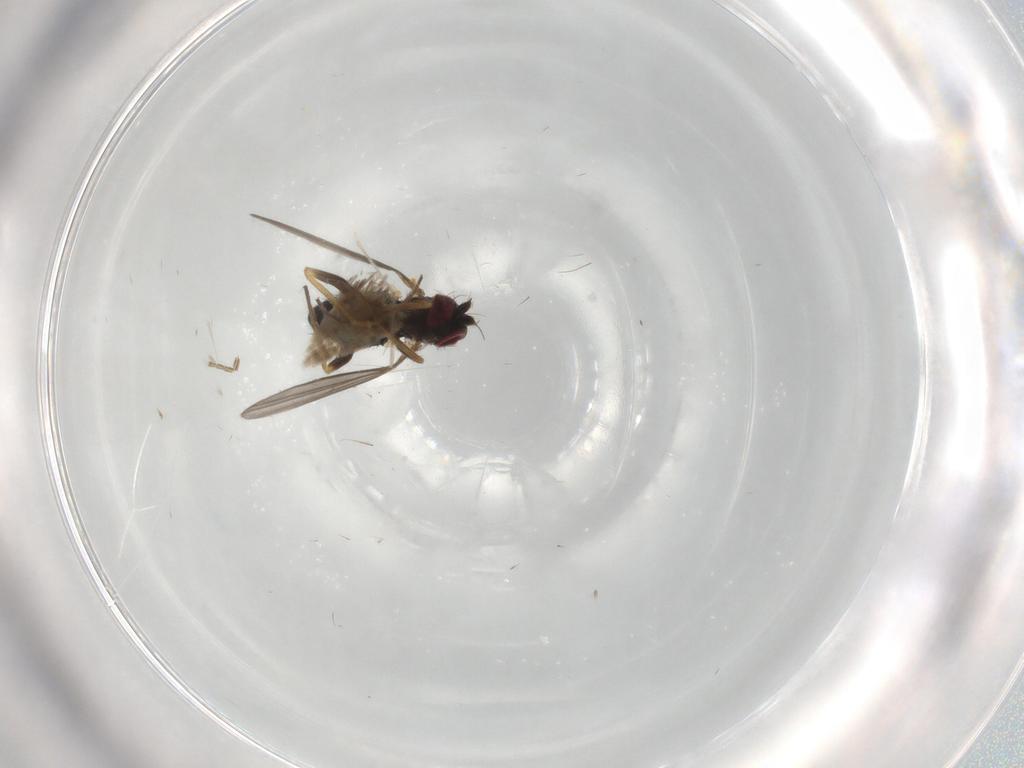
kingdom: Animalia
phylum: Arthropoda
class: Insecta
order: Diptera
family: Dolichopodidae
